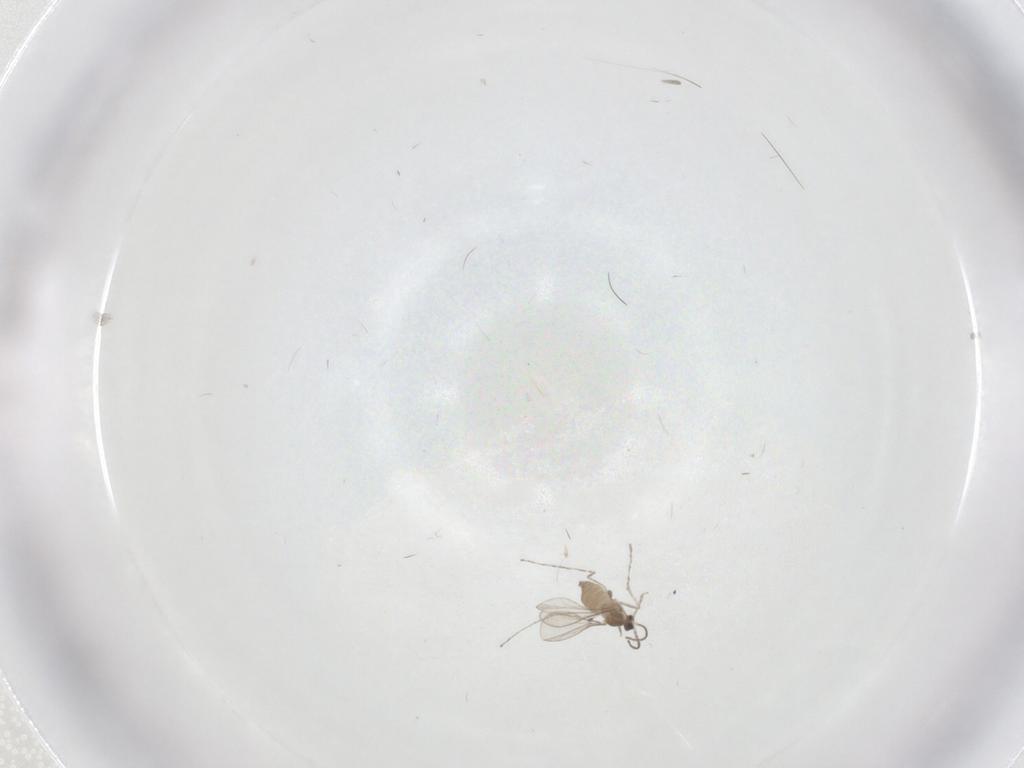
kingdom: Animalia
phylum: Arthropoda
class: Insecta
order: Diptera
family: Cecidomyiidae
